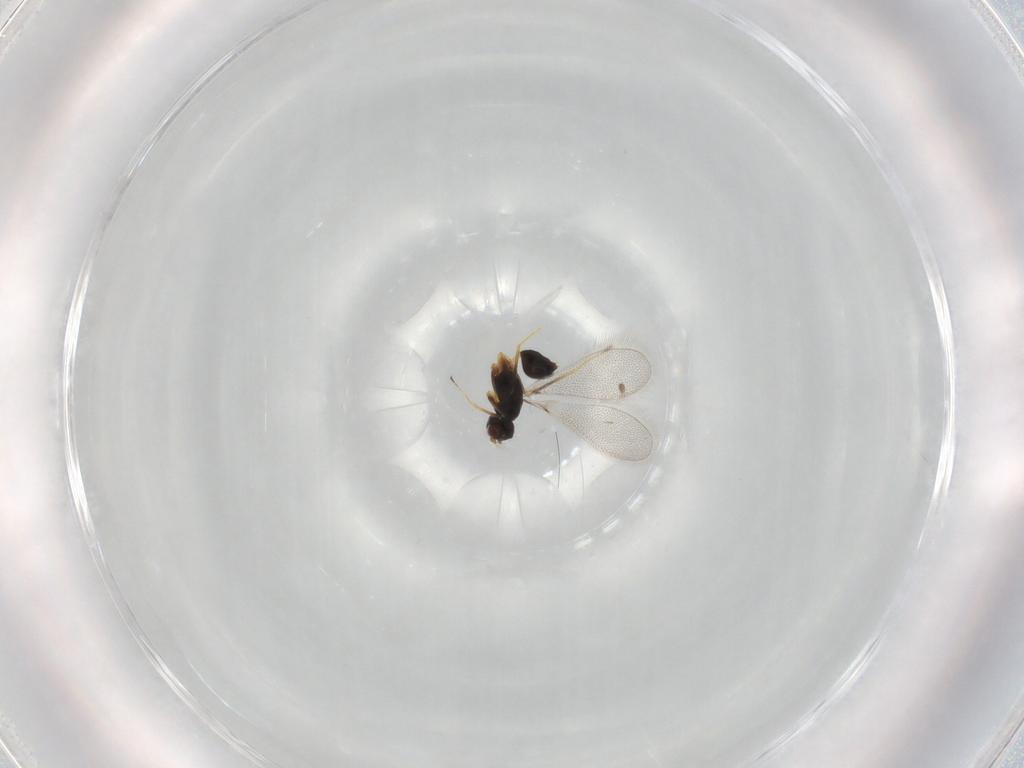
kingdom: Animalia
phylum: Arthropoda
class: Insecta
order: Hymenoptera
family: Mymaridae
